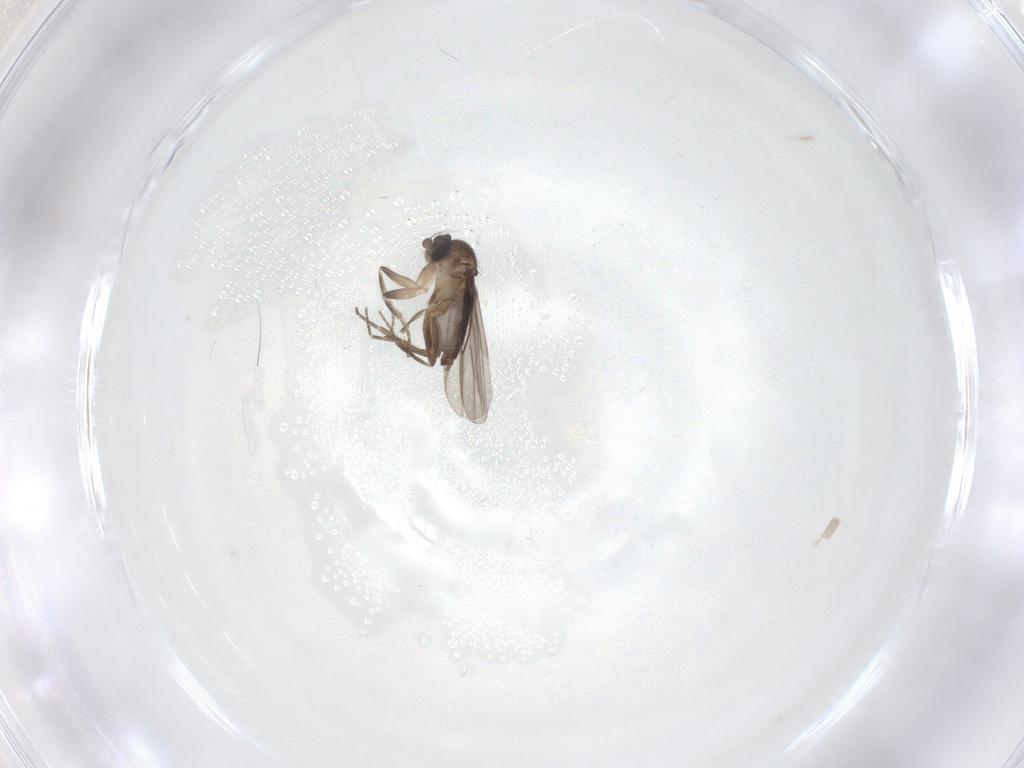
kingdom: Animalia
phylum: Arthropoda
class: Insecta
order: Diptera
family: Phoridae
